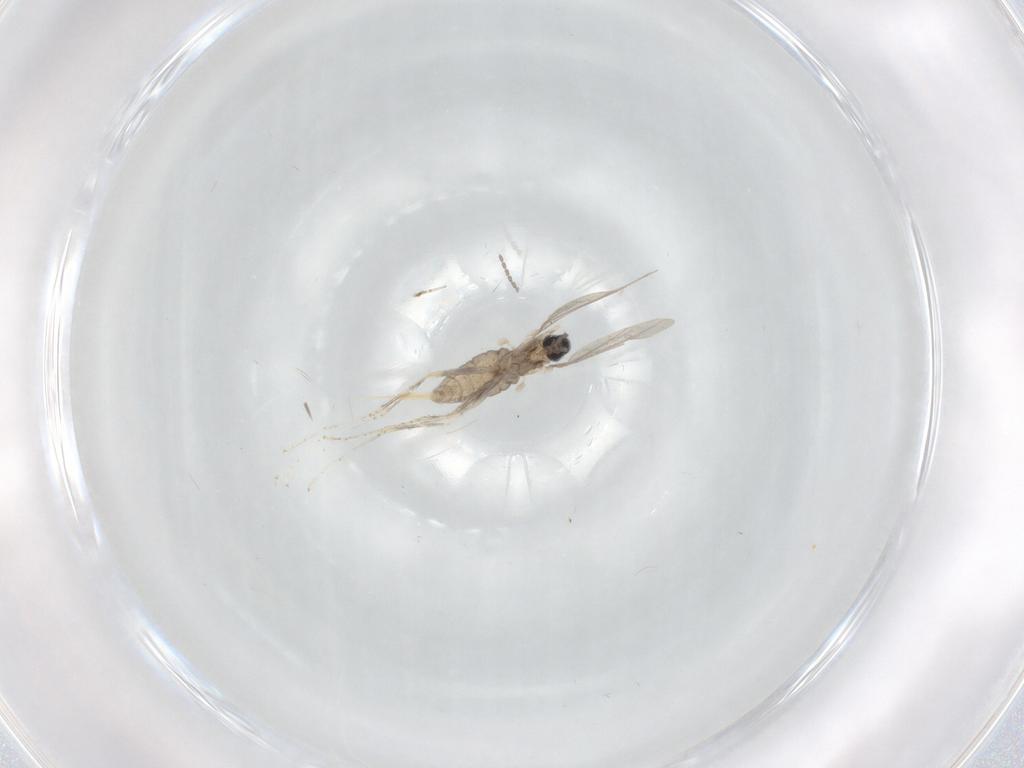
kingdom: Animalia
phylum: Arthropoda
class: Insecta
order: Diptera
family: Cecidomyiidae
